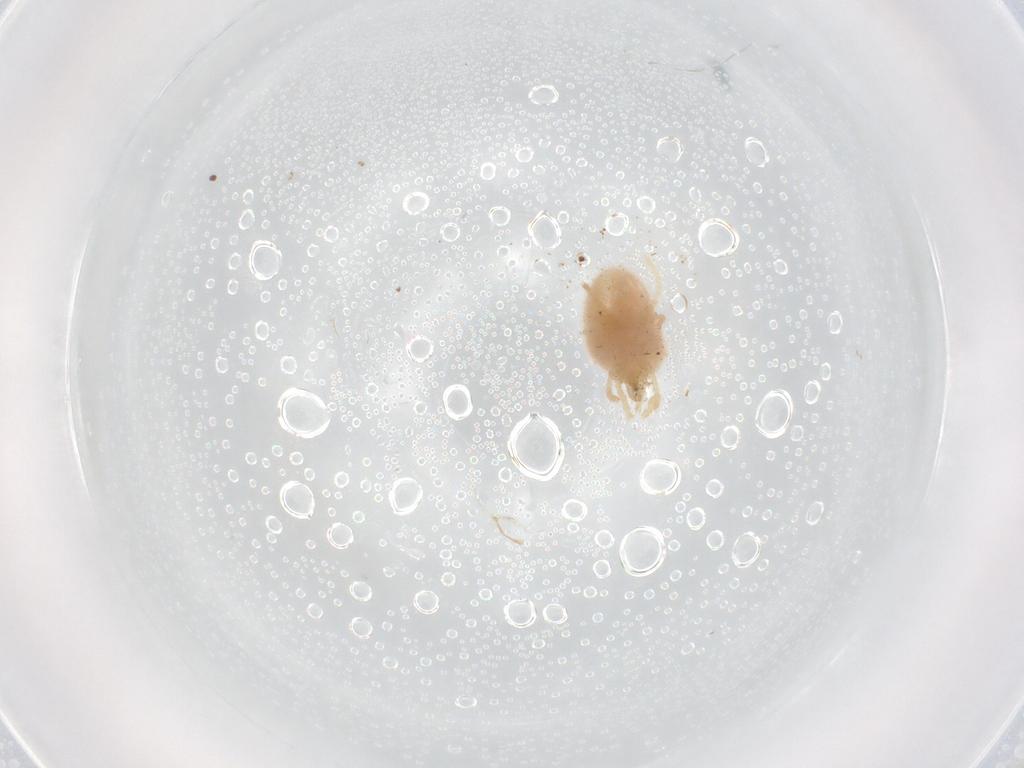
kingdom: Animalia
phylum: Arthropoda
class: Arachnida
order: Trombidiformes
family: Tetranychidae
